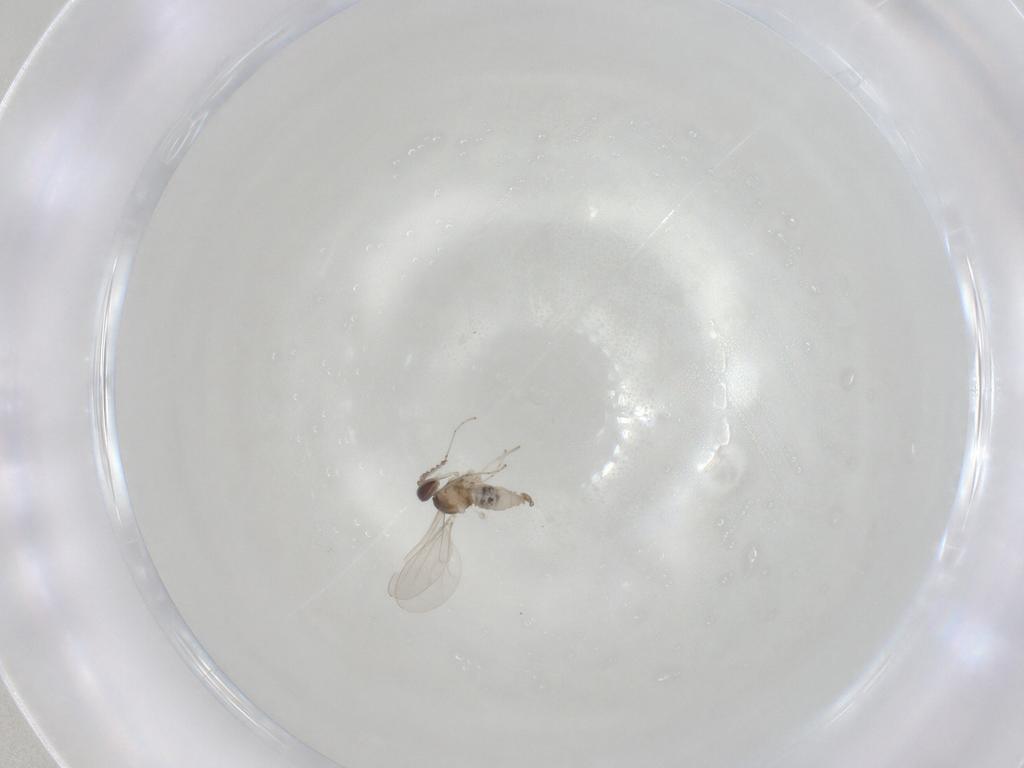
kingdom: Animalia
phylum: Arthropoda
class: Insecta
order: Diptera
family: Cecidomyiidae
